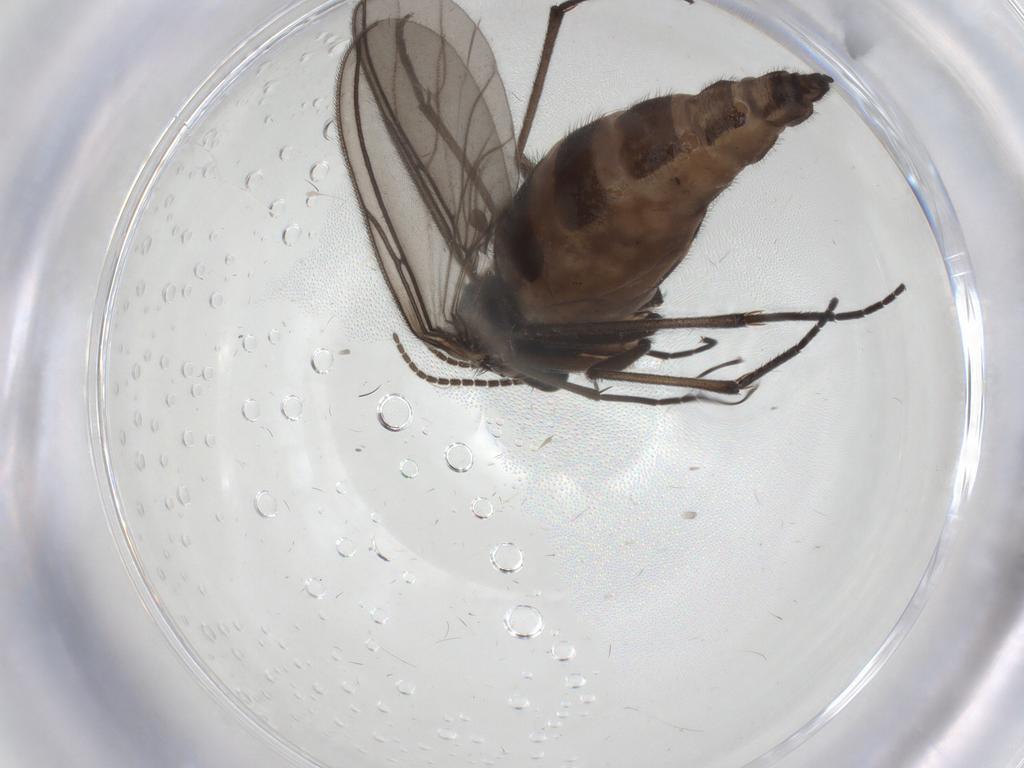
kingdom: Animalia
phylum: Arthropoda
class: Insecta
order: Diptera
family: Sciaridae
